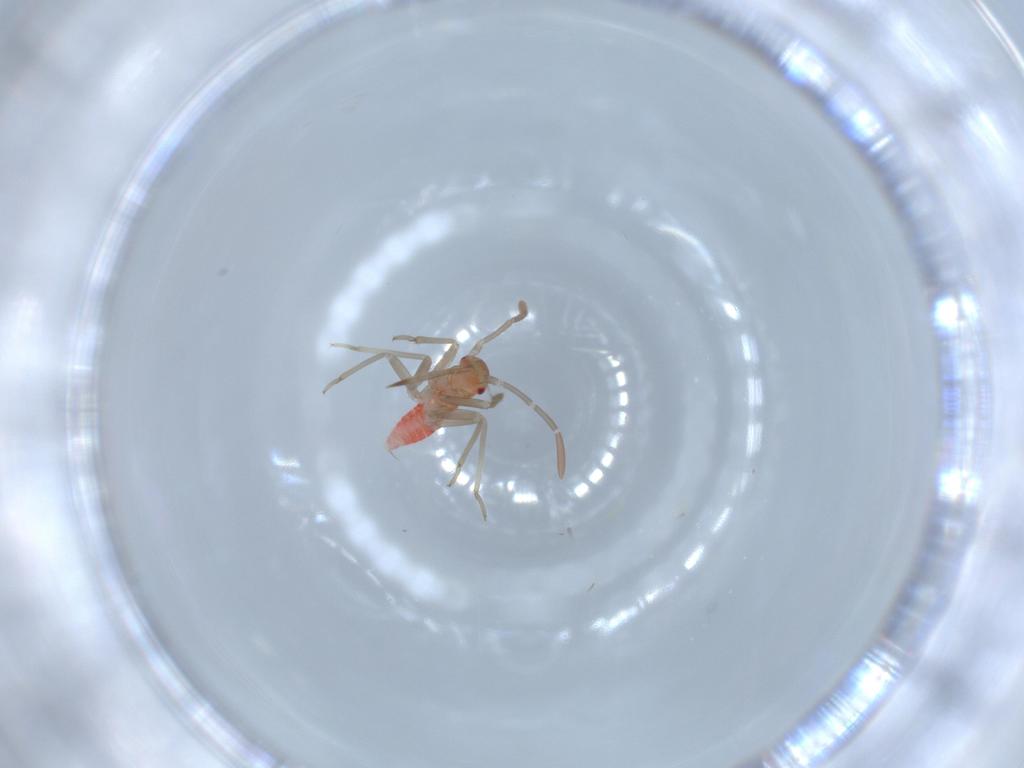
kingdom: Animalia
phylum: Arthropoda
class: Insecta
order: Hemiptera
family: Miridae
